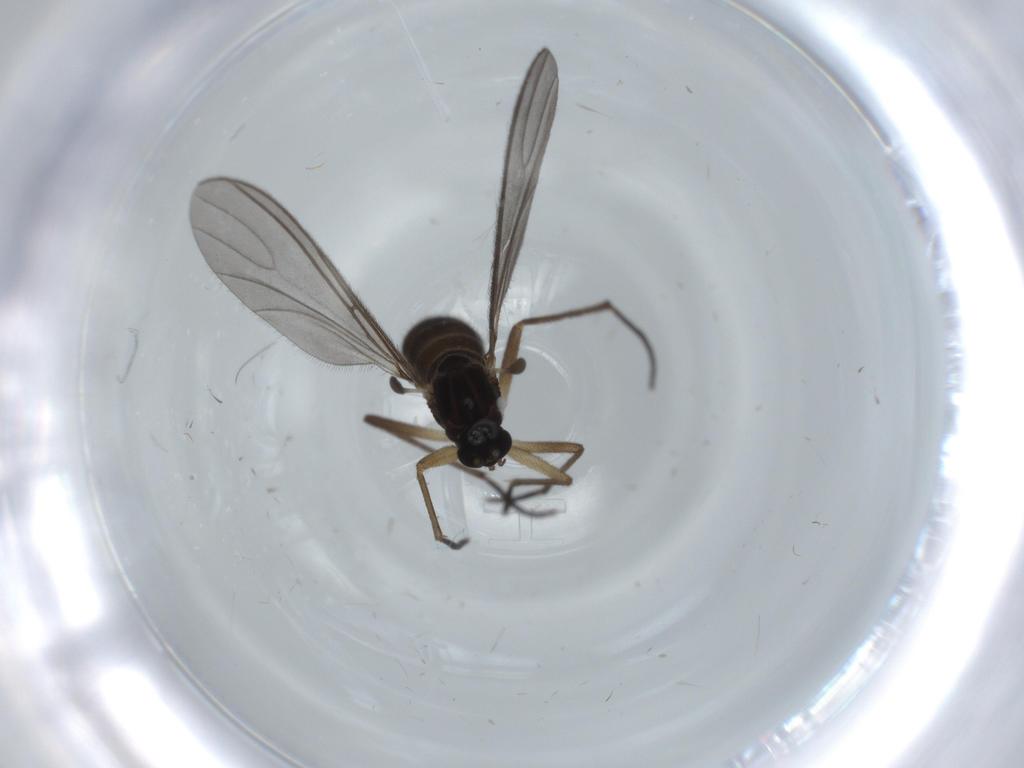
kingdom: Animalia
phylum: Arthropoda
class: Insecta
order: Diptera
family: Sciaridae
